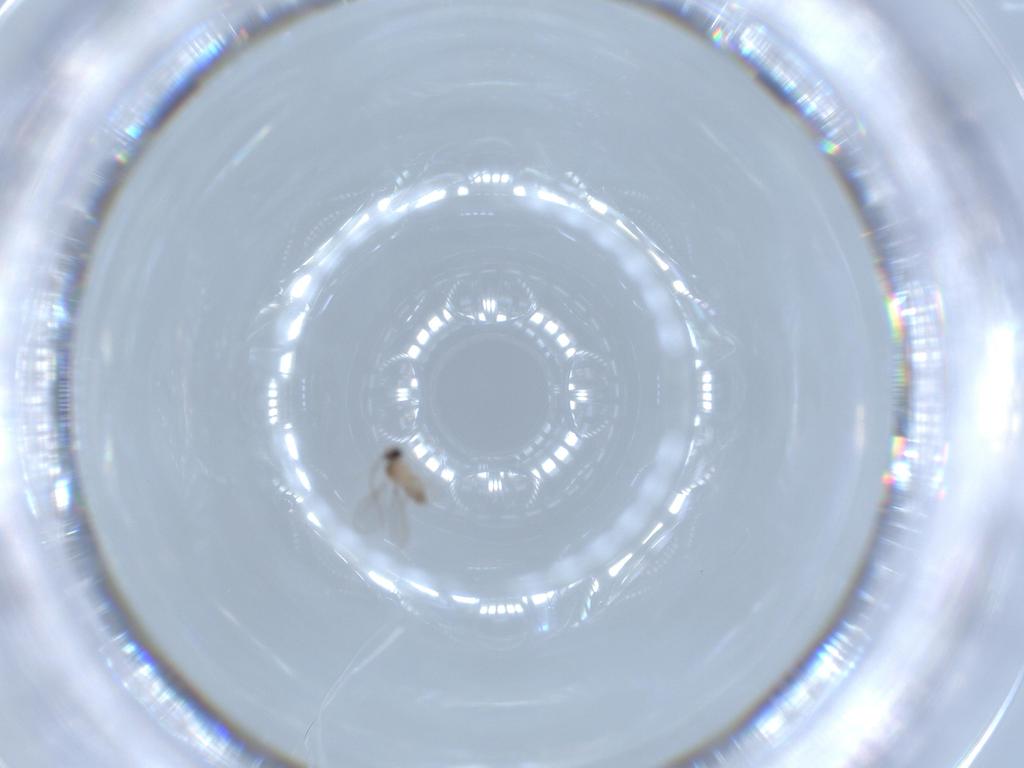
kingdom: Animalia
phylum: Arthropoda
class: Insecta
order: Diptera
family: Cecidomyiidae
